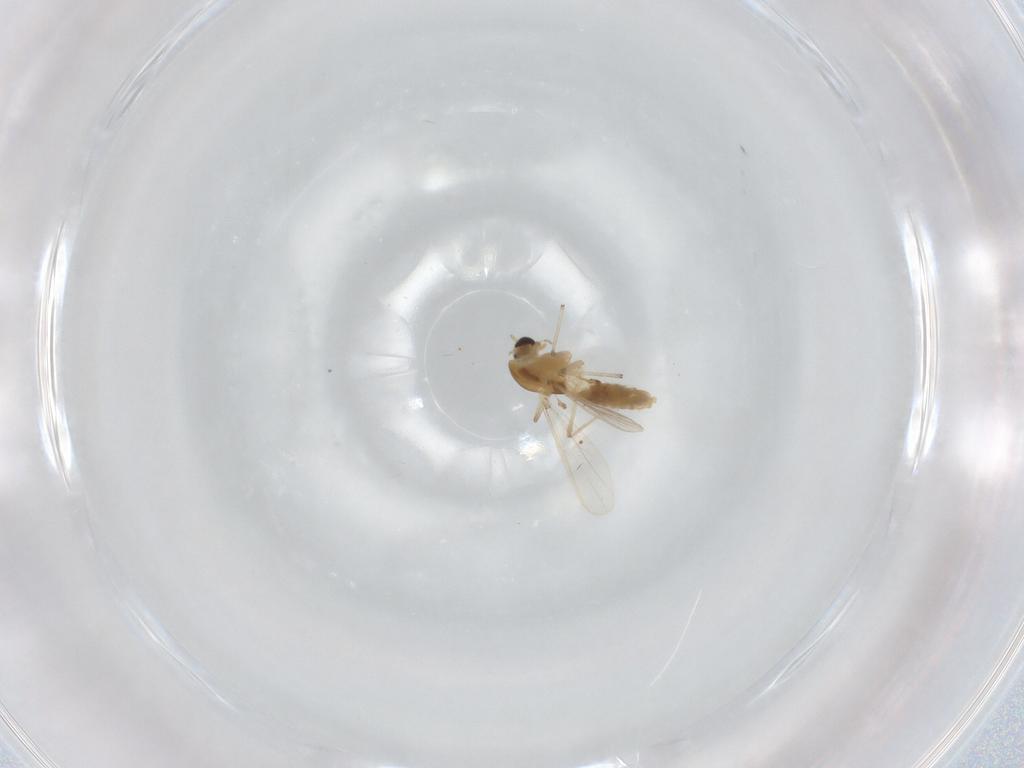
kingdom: Animalia
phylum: Arthropoda
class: Insecta
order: Diptera
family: Chironomidae
